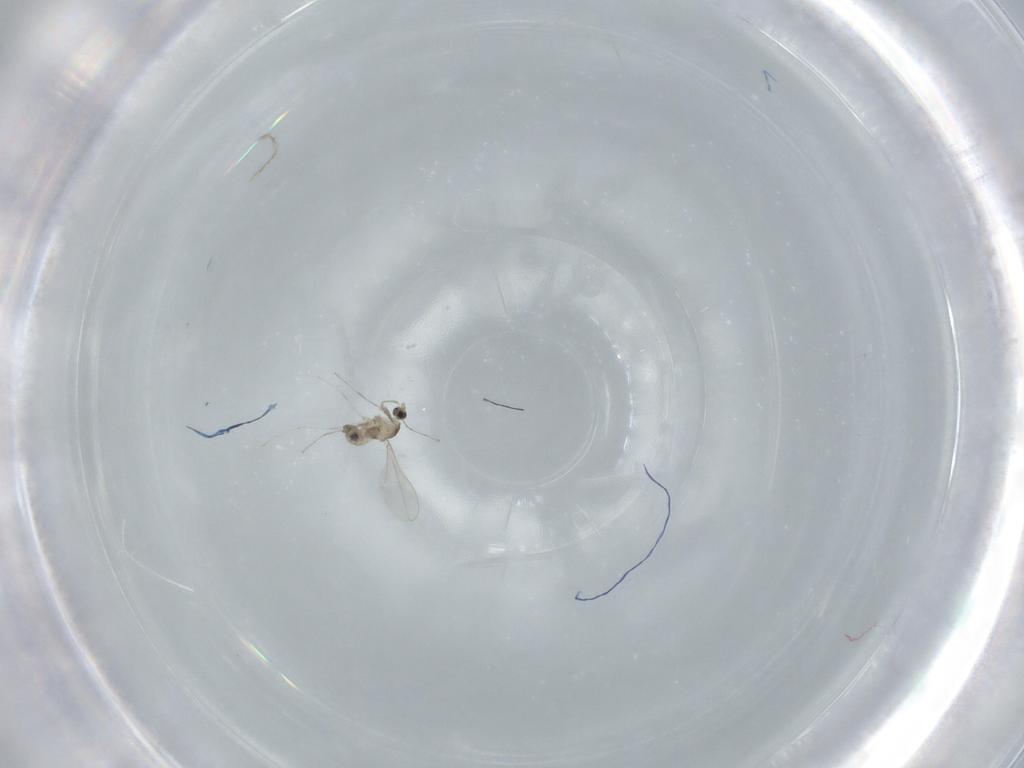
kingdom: Animalia
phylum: Arthropoda
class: Insecta
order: Diptera
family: Cecidomyiidae
